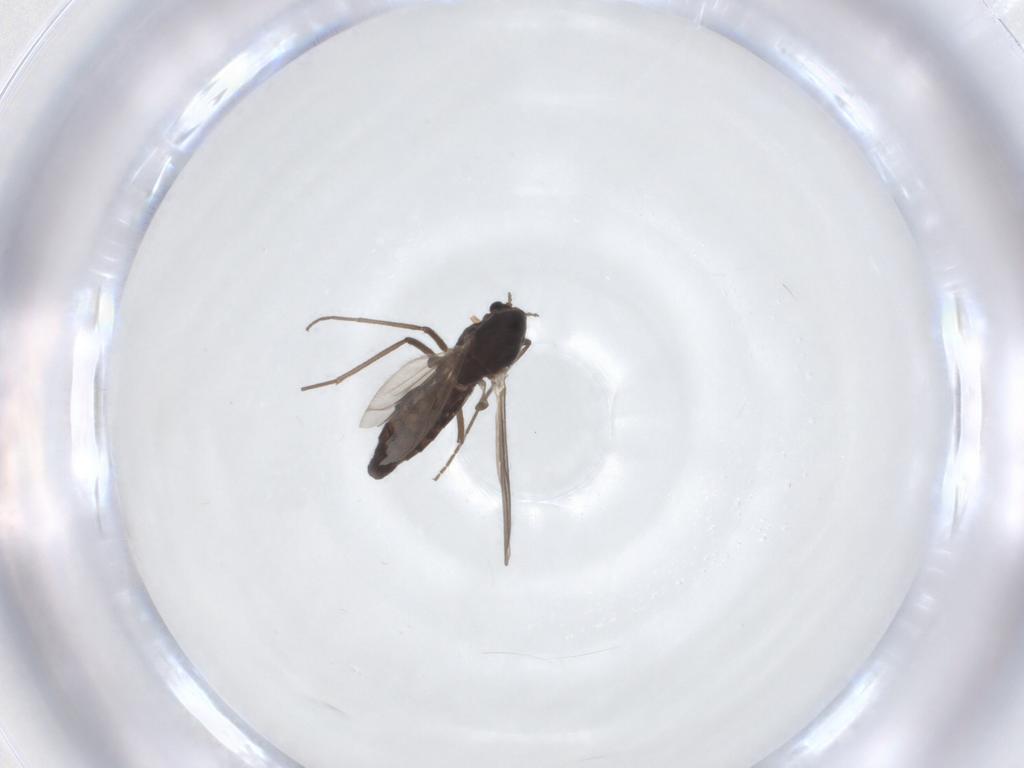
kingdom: Animalia
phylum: Arthropoda
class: Insecta
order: Diptera
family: Chironomidae
